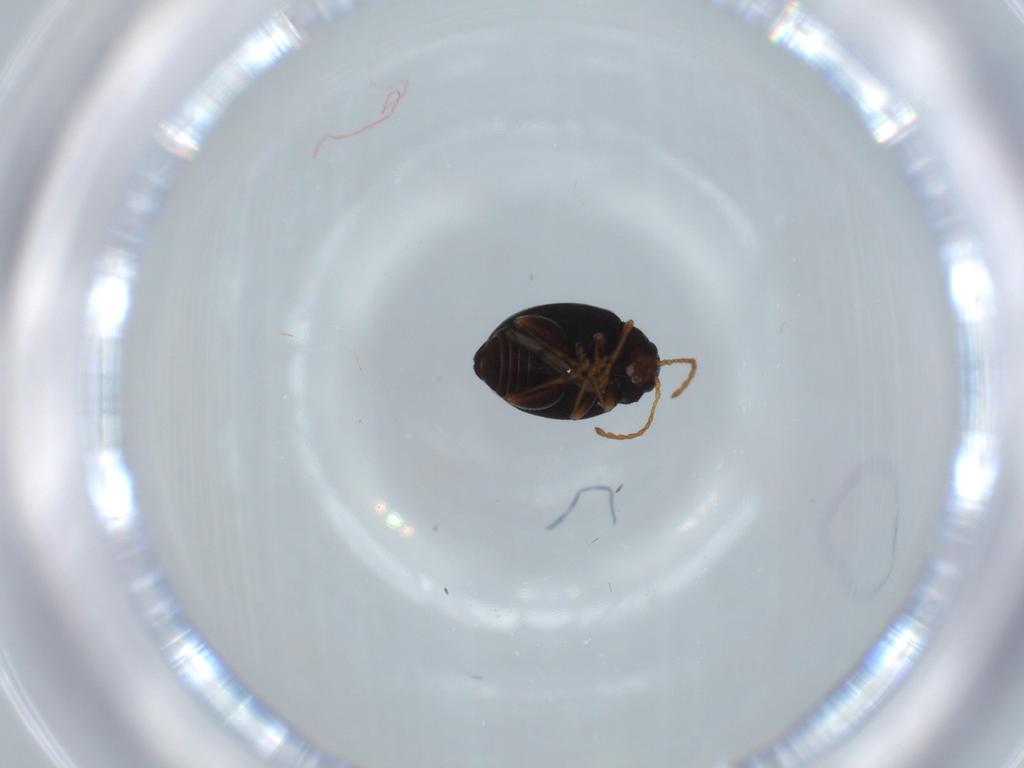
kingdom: Animalia
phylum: Arthropoda
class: Insecta
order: Coleoptera
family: Chrysomelidae
